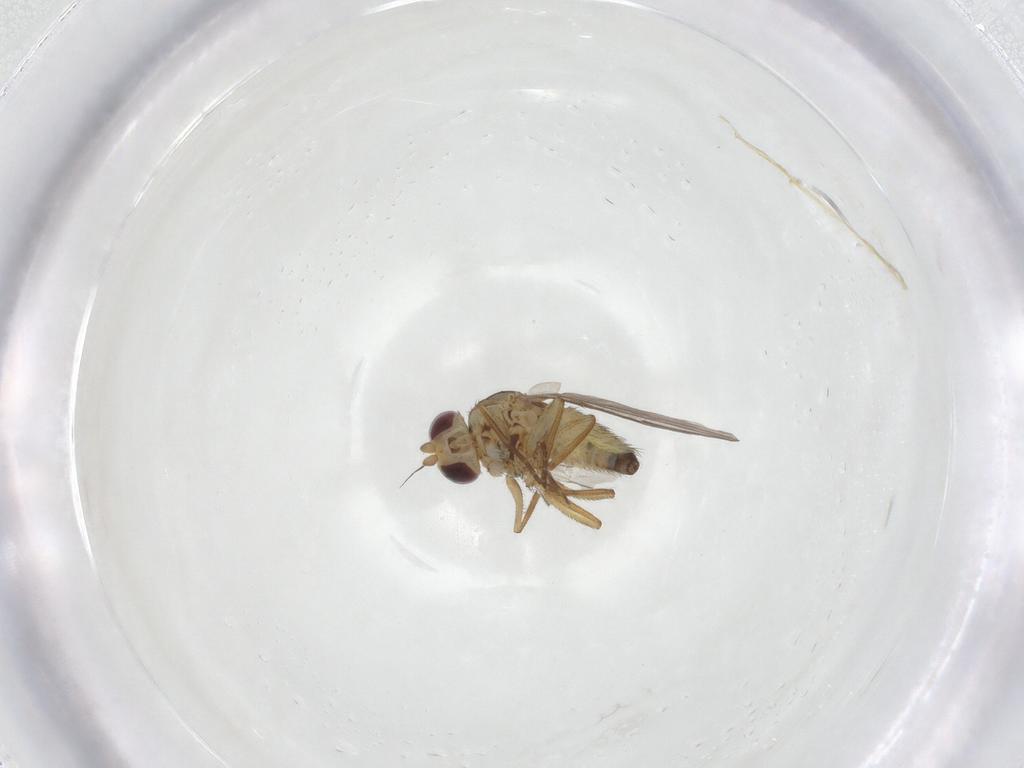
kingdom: Animalia
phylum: Arthropoda
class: Insecta
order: Diptera
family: Agromyzidae
